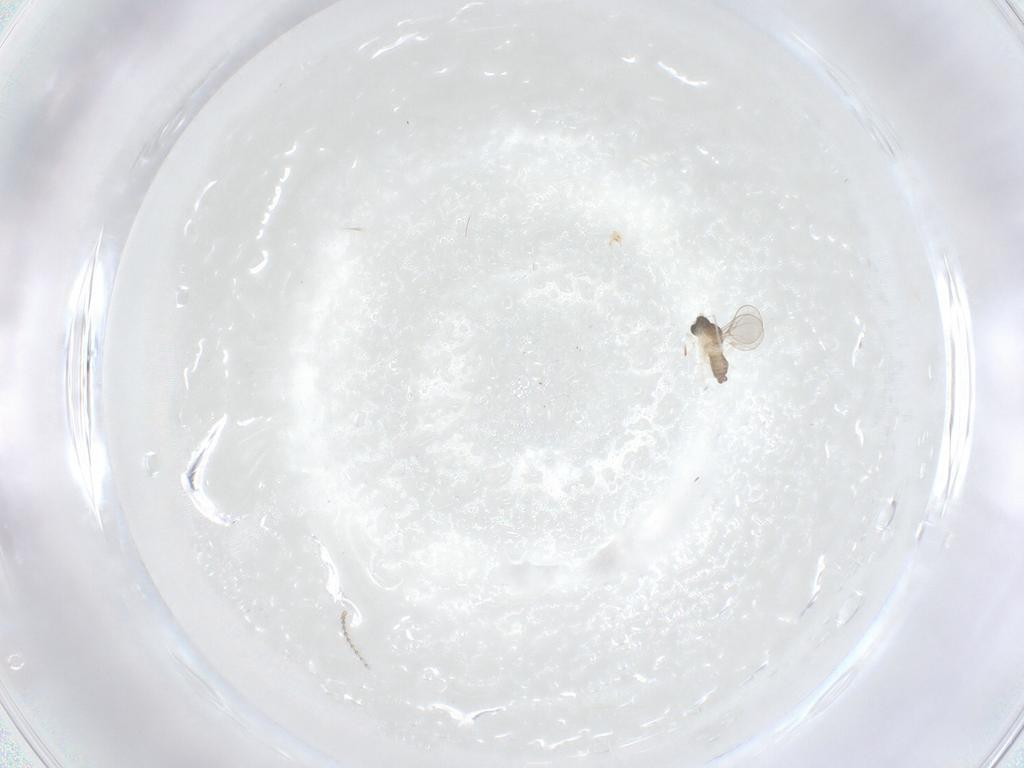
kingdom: Animalia
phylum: Arthropoda
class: Insecta
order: Diptera
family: Cecidomyiidae
